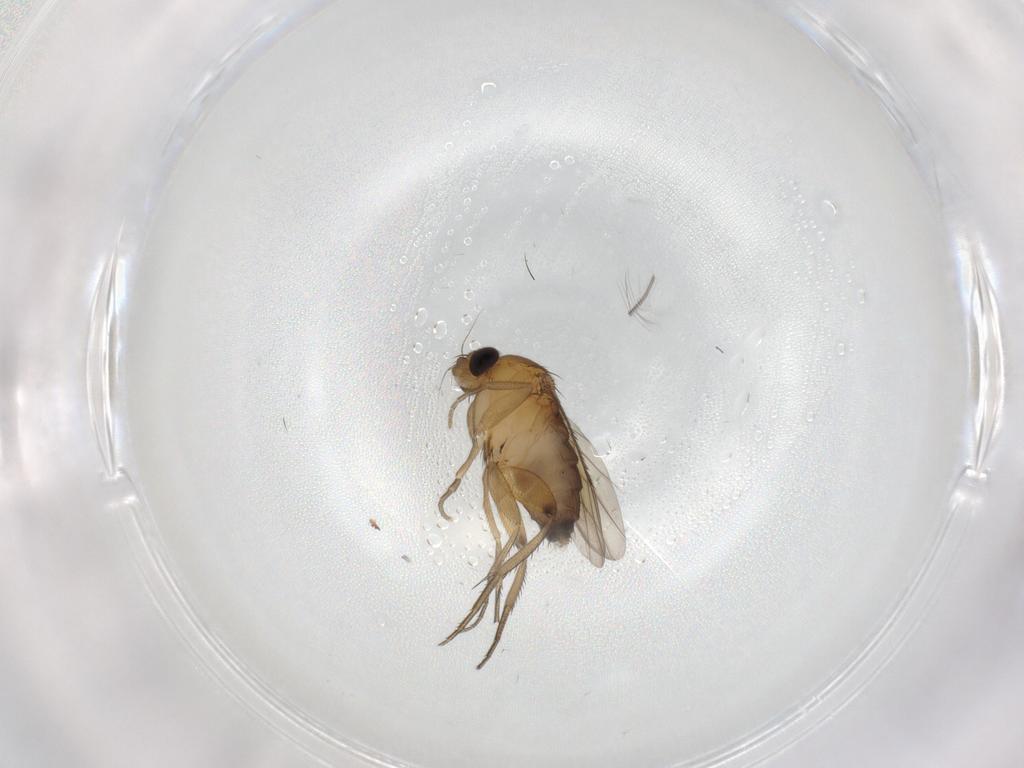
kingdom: Animalia
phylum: Arthropoda
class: Insecta
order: Diptera
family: Phoridae
